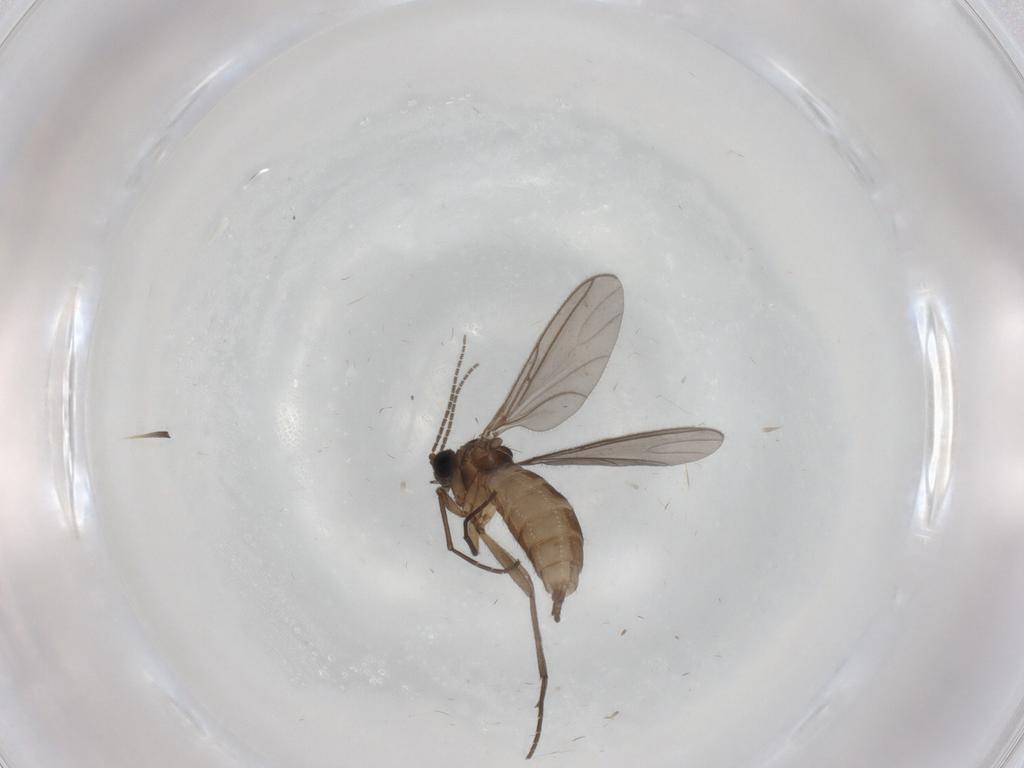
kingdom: Animalia
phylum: Arthropoda
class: Insecta
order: Diptera
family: Sciaridae
